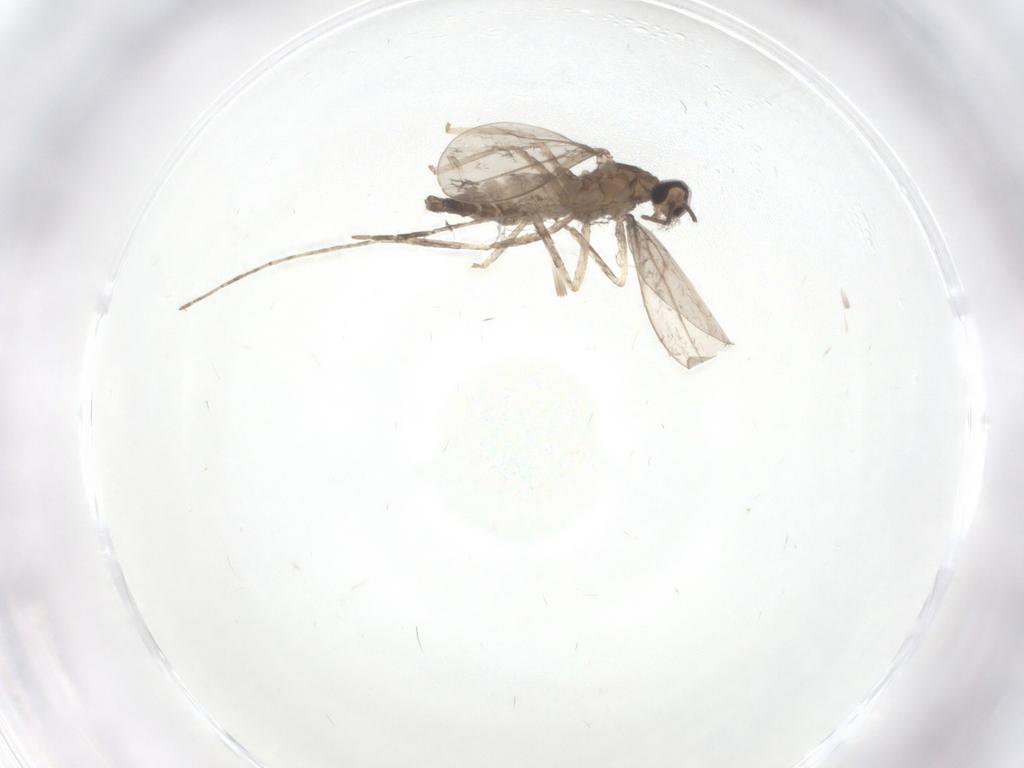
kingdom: Animalia
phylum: Arthropoda
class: Insecta
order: Diptera
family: Cecidomyiidae
